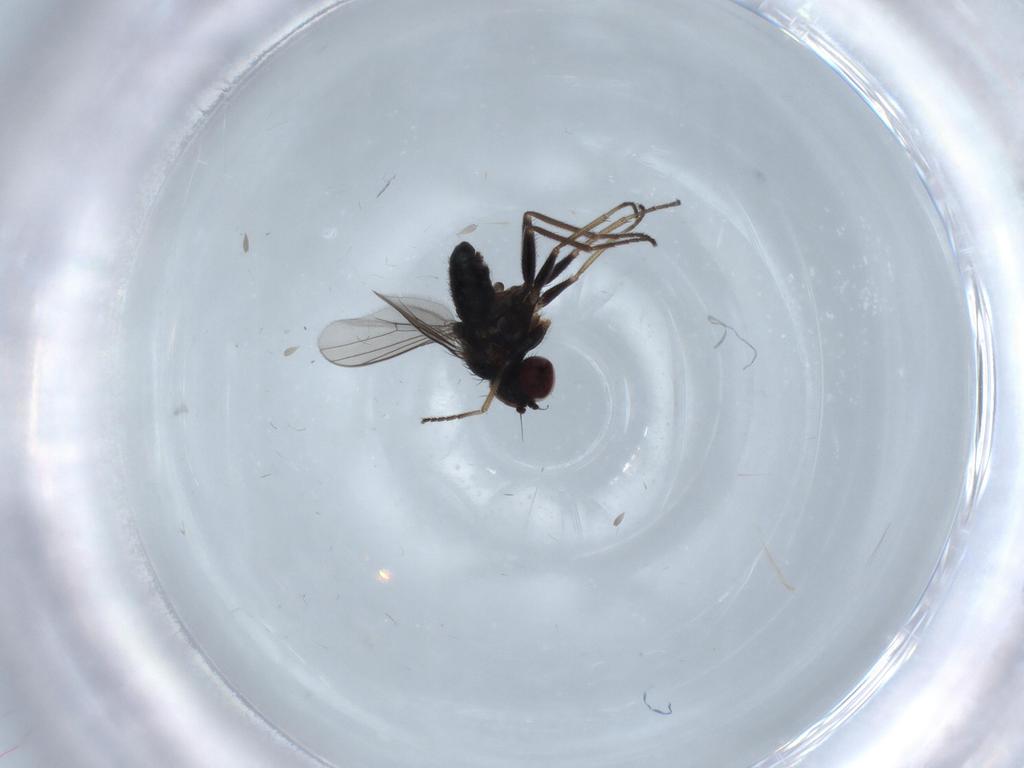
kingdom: Animalia
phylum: Arthropoda
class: Insecta
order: Diptera
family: Dolichopodidae
